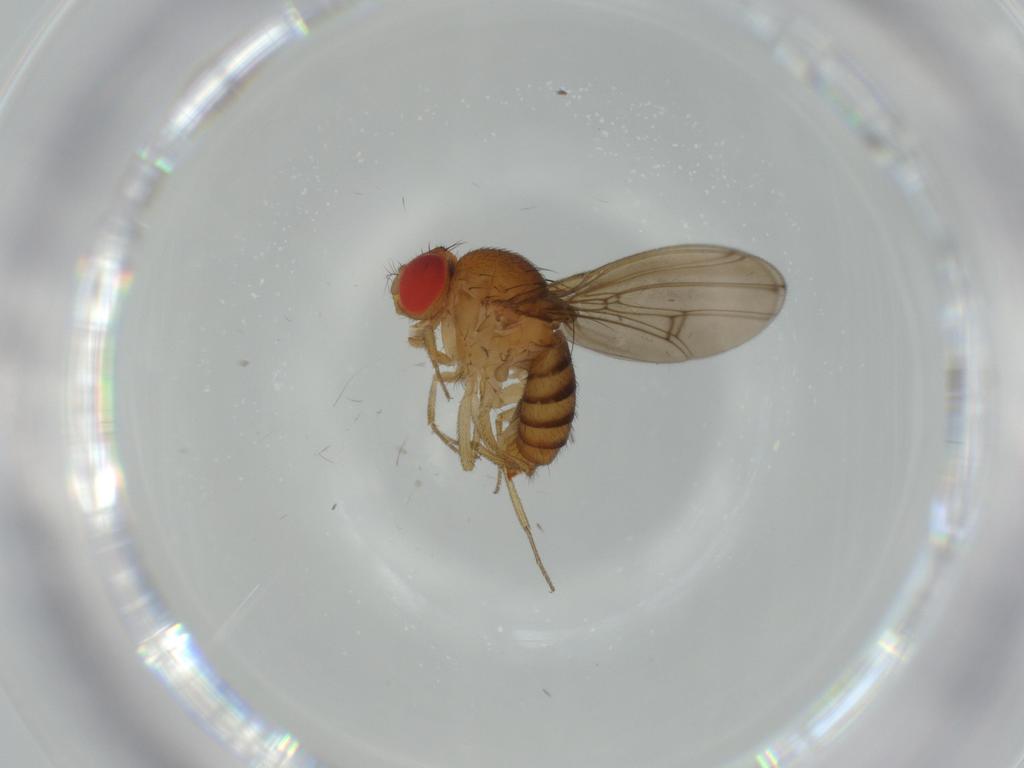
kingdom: Animalia
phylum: Arthropoda
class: Insecta
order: Diptera
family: Drosophilidae
